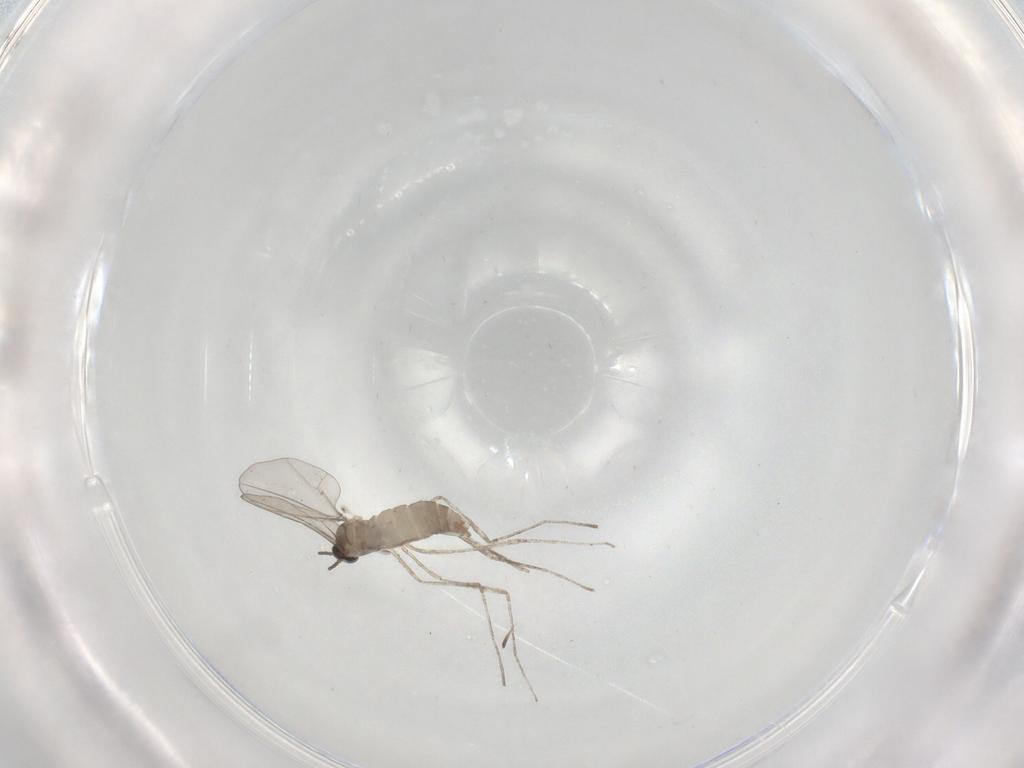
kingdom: Animalia
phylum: Arthropoda
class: Insecta
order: Diptera
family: Cecidomyiidae
